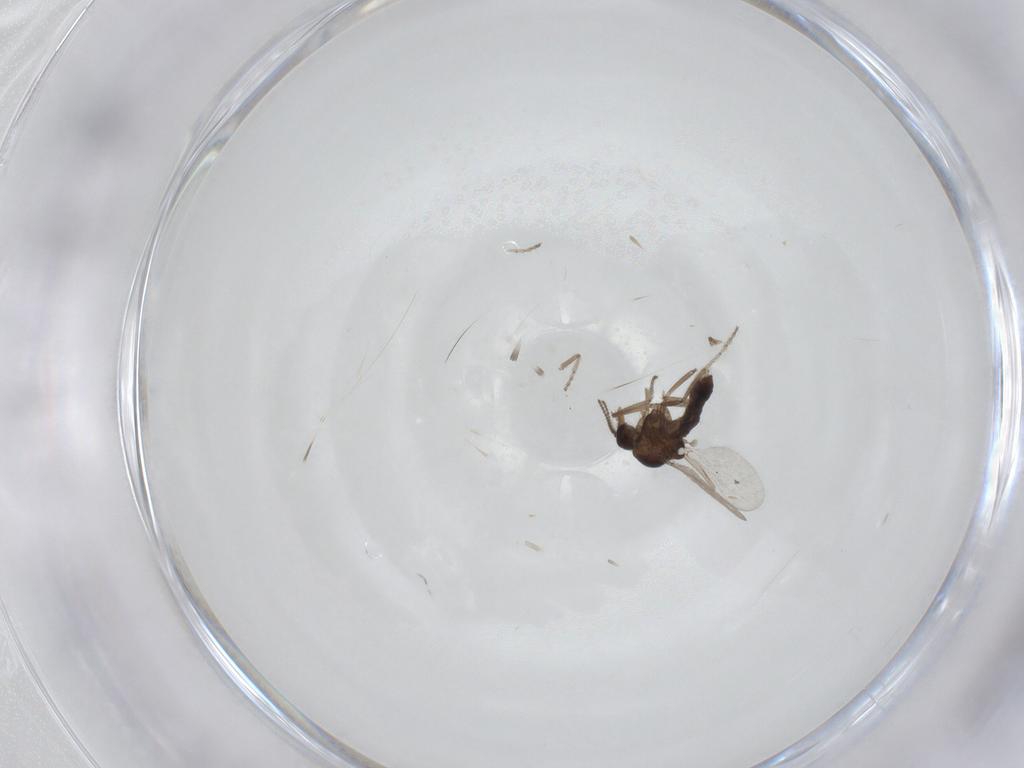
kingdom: Animalia
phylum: Arthropoda
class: Insecta
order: Diptera
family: Ceratopogonidae
